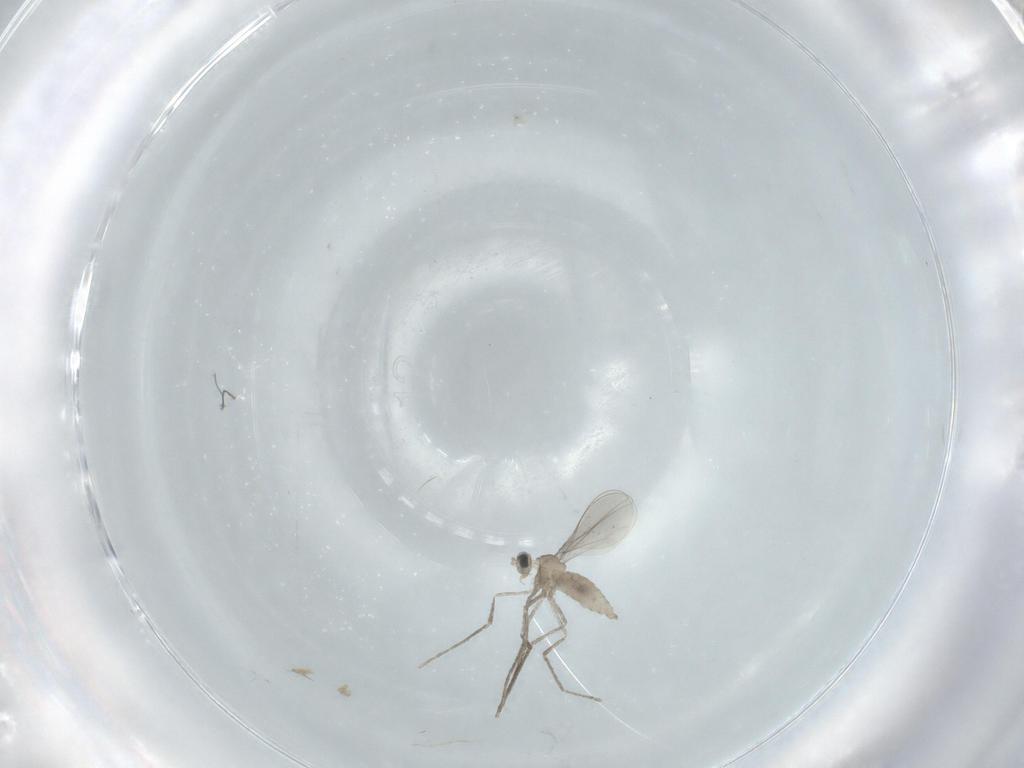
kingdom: Animalia
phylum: Arthropoda
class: Insecta
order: Diptera
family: Cecidomyiidae
